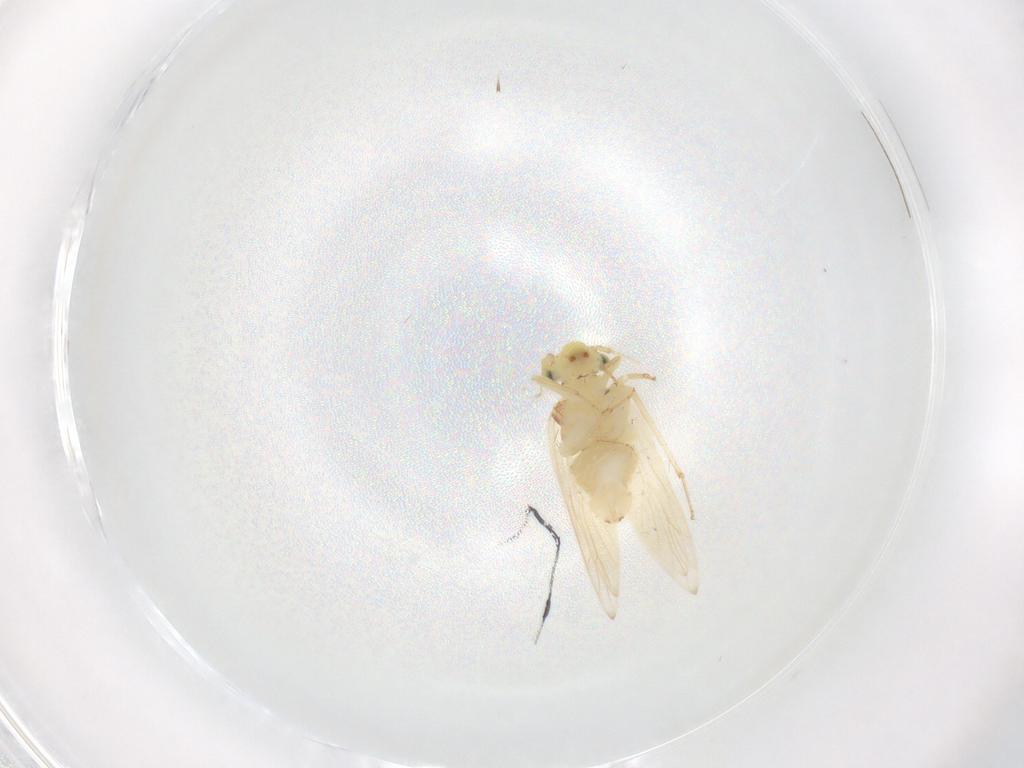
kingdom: Animalia
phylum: Arthropoda
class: Insecta
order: Psocodea
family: Lepidopsocidae
